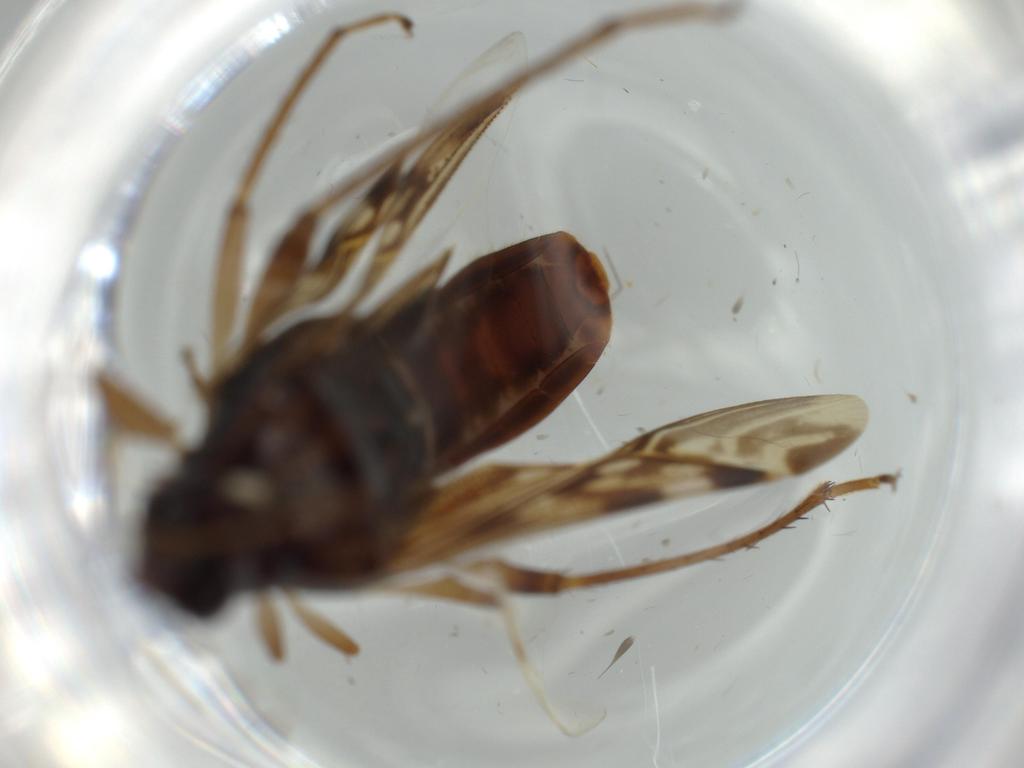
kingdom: Animalia
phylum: Arthropoda
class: Insecta
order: Hemiptera
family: Rhyparochromidae
